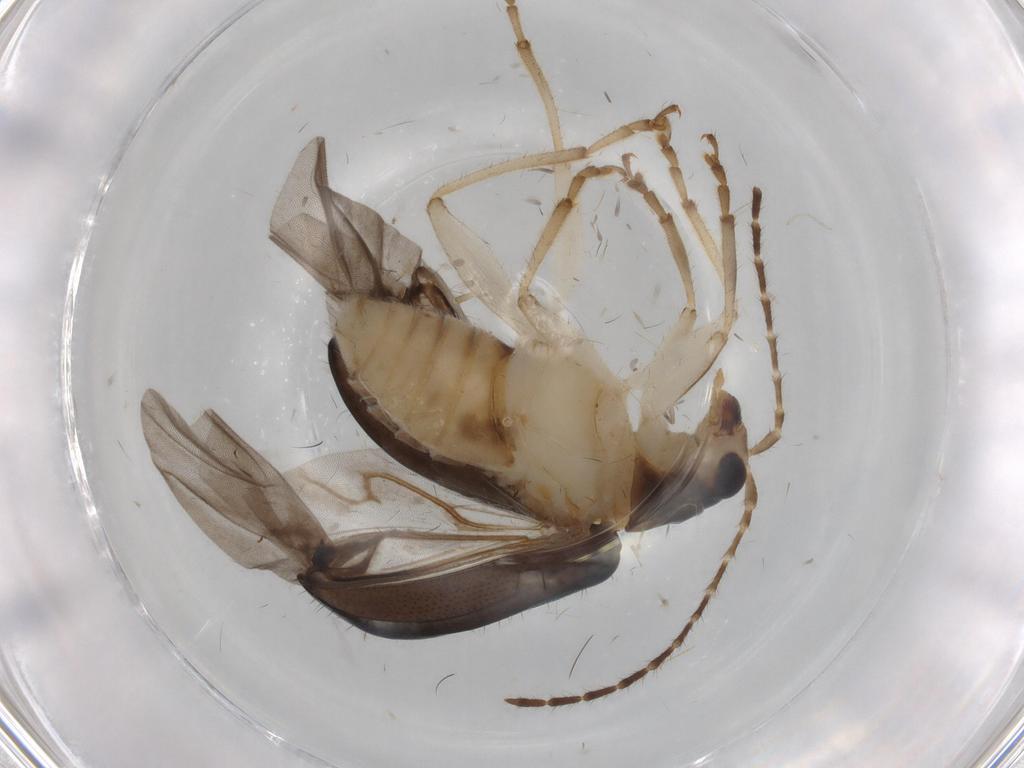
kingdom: Animalia
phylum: Arthropoda
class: Insecta
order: Coleoptera
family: Chrysomelidae
